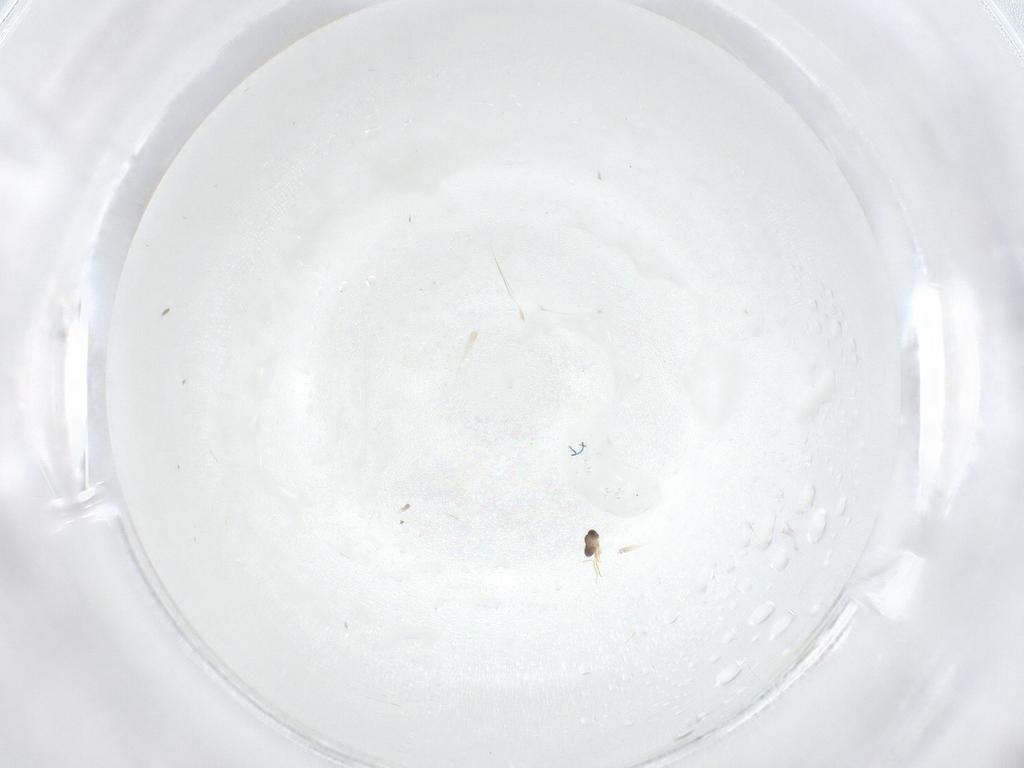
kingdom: Animalia
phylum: Arthropoda
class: Insecta
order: Hymenoptera
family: Mymaridae
